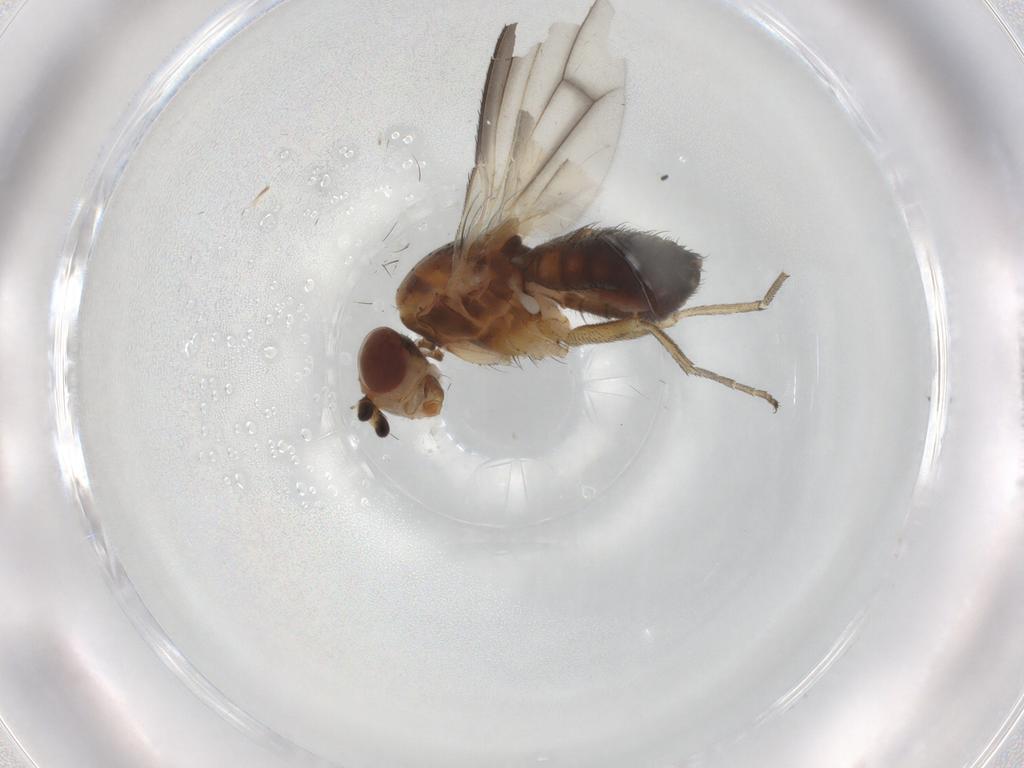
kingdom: Animalia
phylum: Arthropoda
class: Insecta
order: Diptera
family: Heleomyzidae
